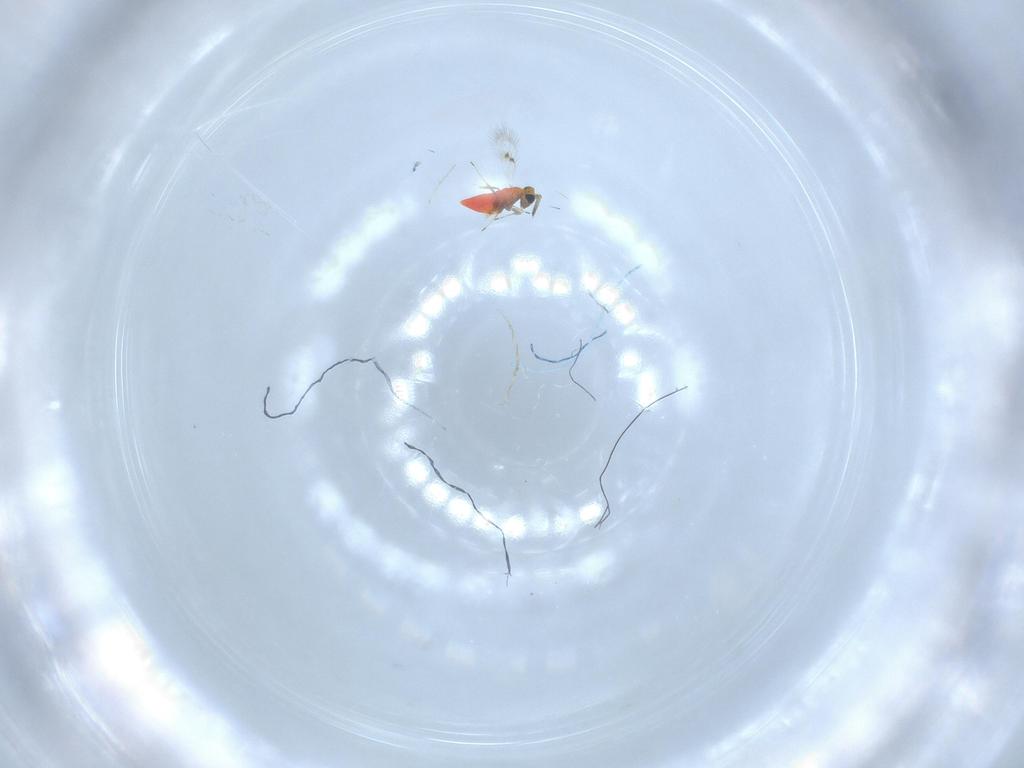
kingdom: Animalia
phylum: Arthropoda
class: Insecta
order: Hymenoptera
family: Trichogrammatidae
